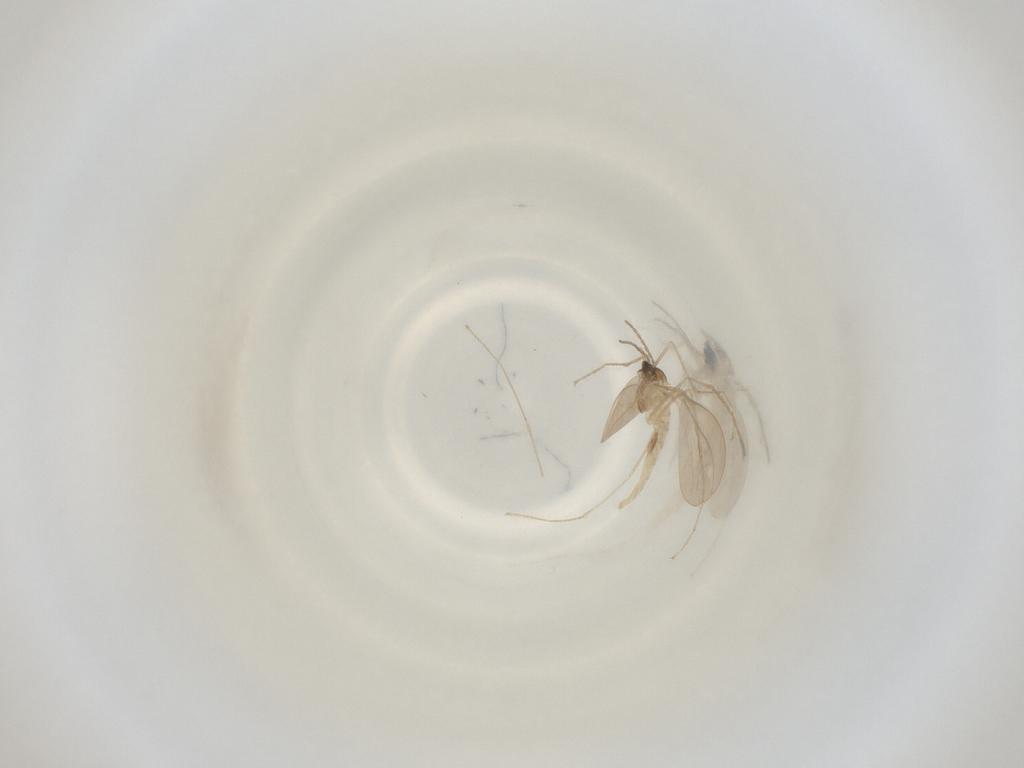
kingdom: Animalia
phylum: Arthropoda
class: Insecta
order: Diptera
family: Cecidomyiidae
